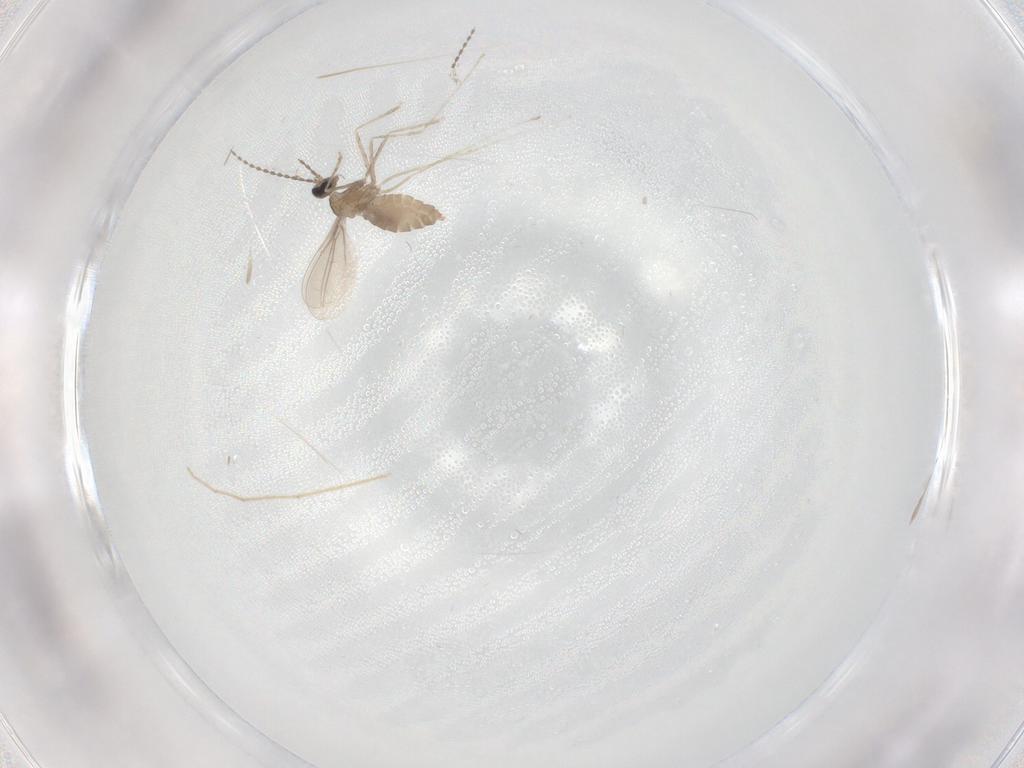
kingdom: Animalia
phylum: Arthropoda
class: Insecta
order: Diptera
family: Cecidomyiidae
